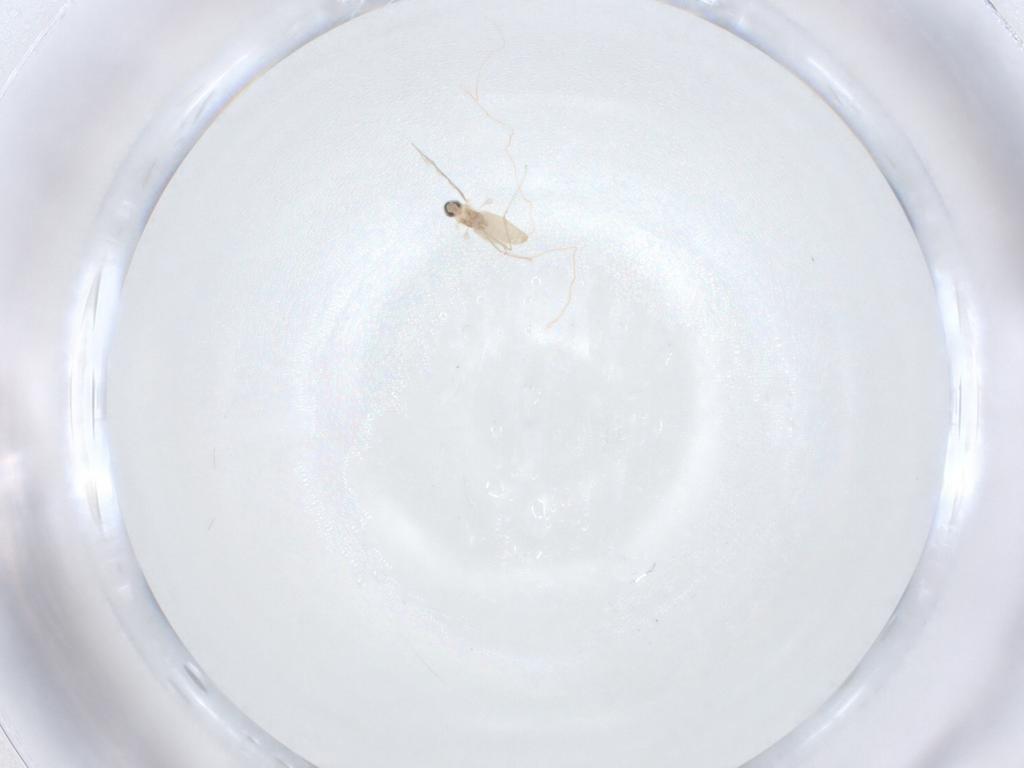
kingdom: Animalia
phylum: Arthropoda
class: Insecta
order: Diptera
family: Cecidomyiidae
